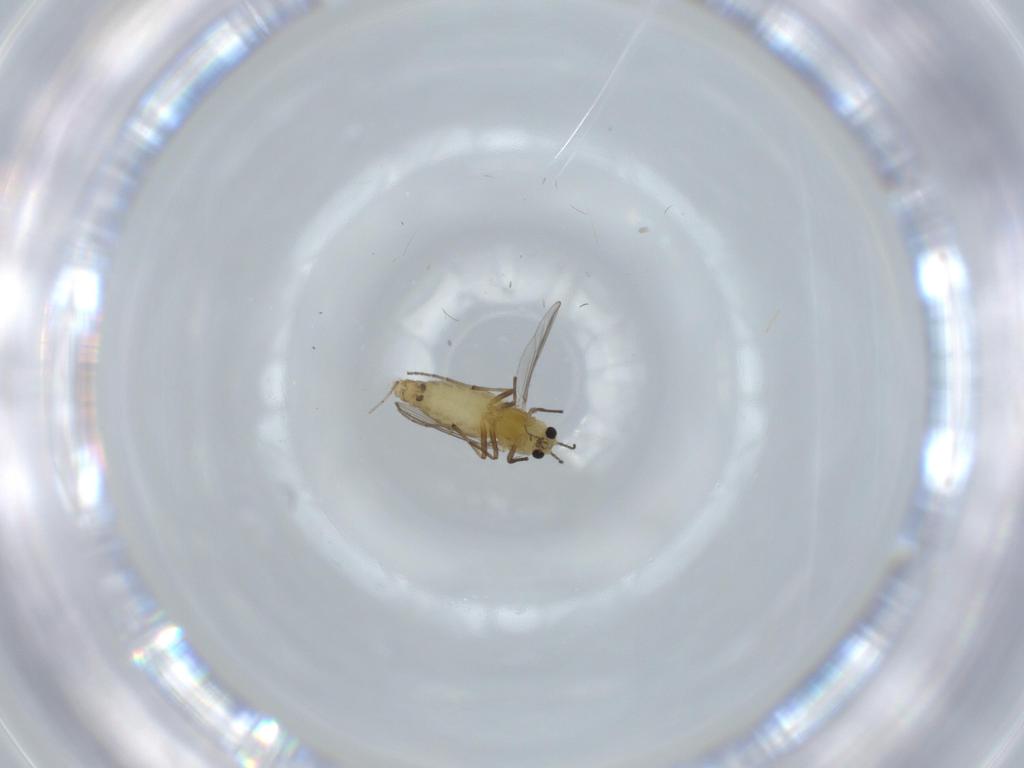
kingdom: Animalia
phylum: Arthropoda
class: Insecta
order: Diptera
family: Chironomidae
